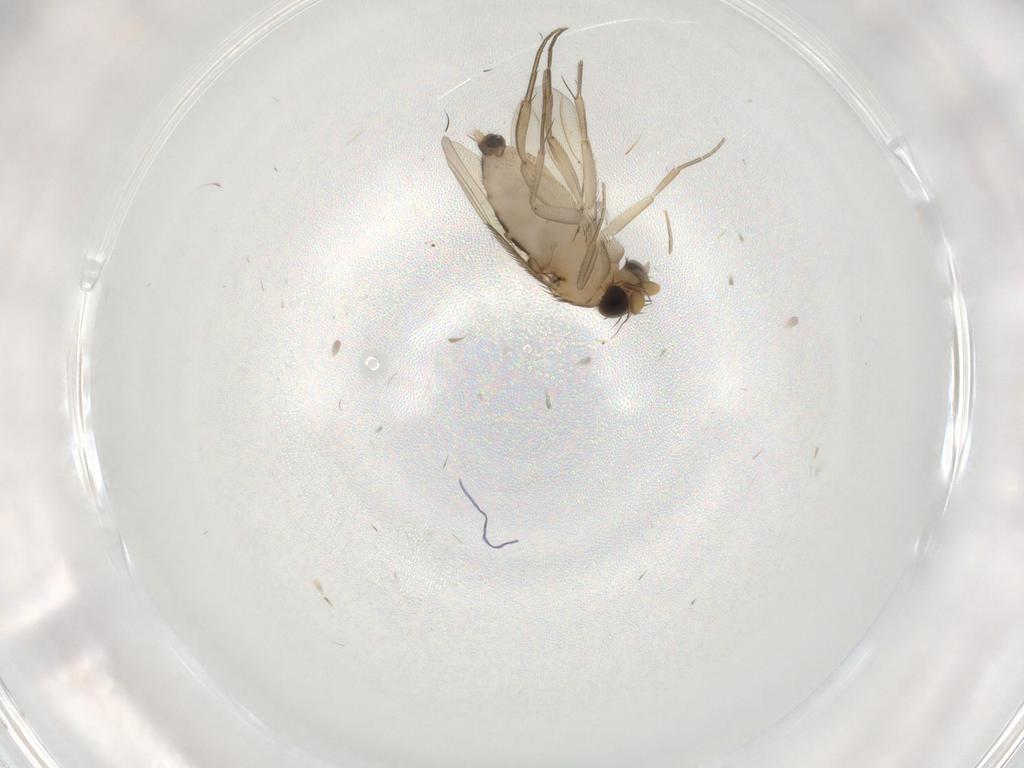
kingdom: Animalia
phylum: Arthropoda
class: Insecta
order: Diptera
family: Phoridae
